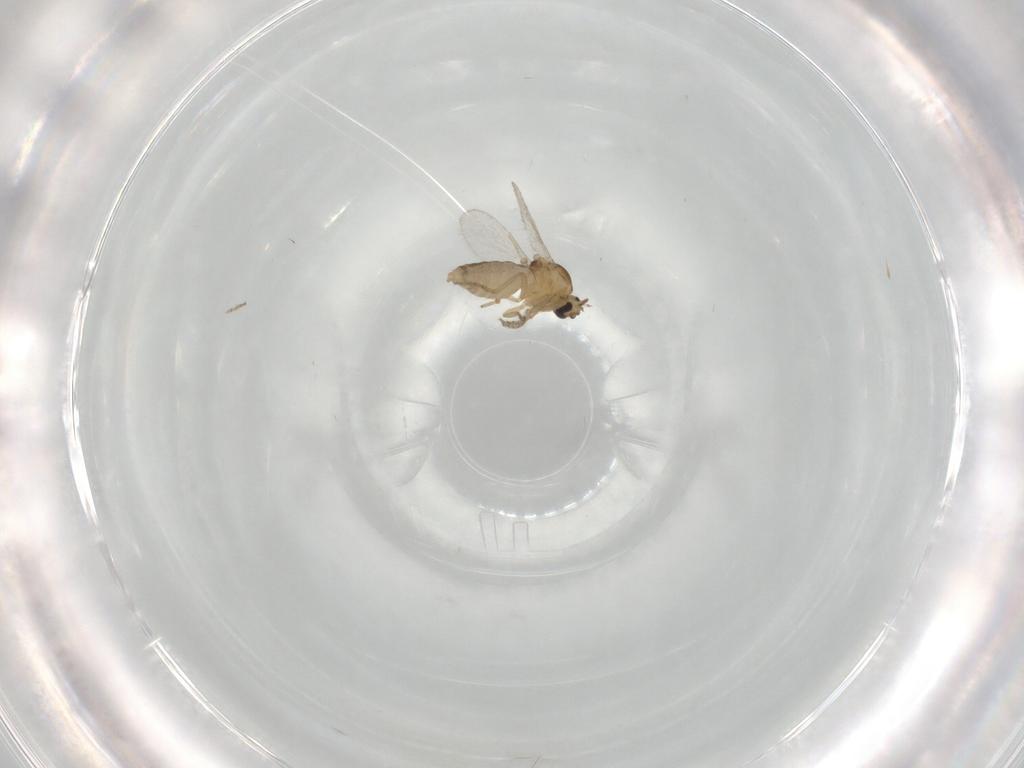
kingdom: Animalia
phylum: Arthropoda
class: Insecta
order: Diptera
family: Ceratopogonidae
